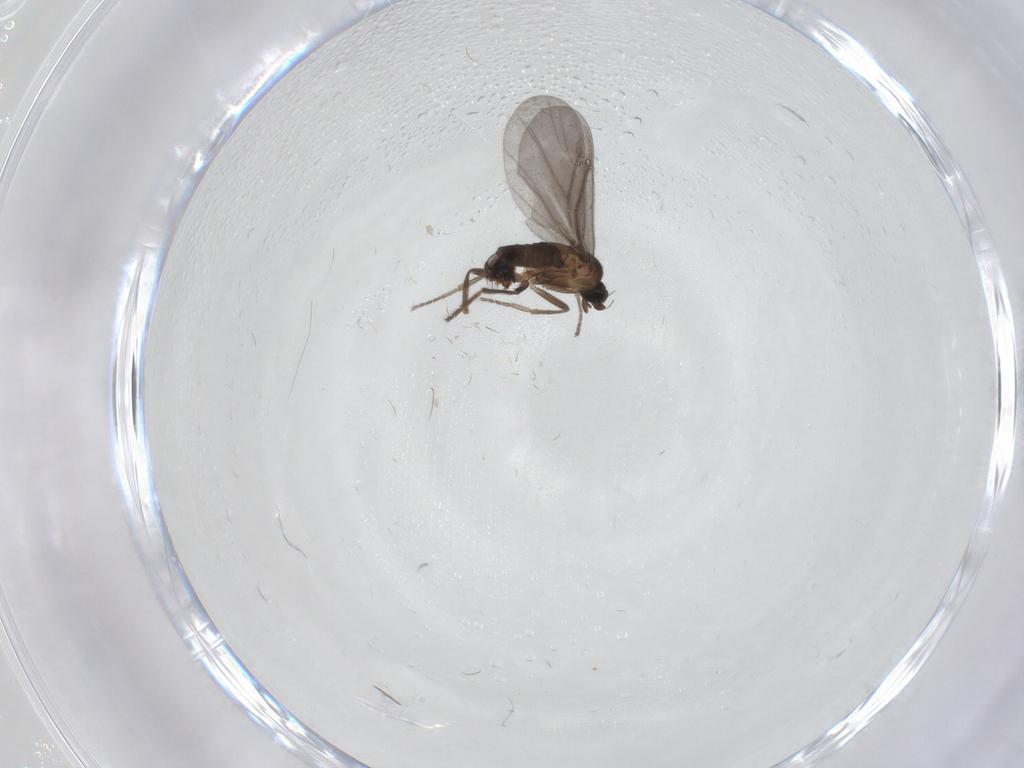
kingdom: Animalia
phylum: Arthropoda
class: Insecta
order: Diptera
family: Phoridae
